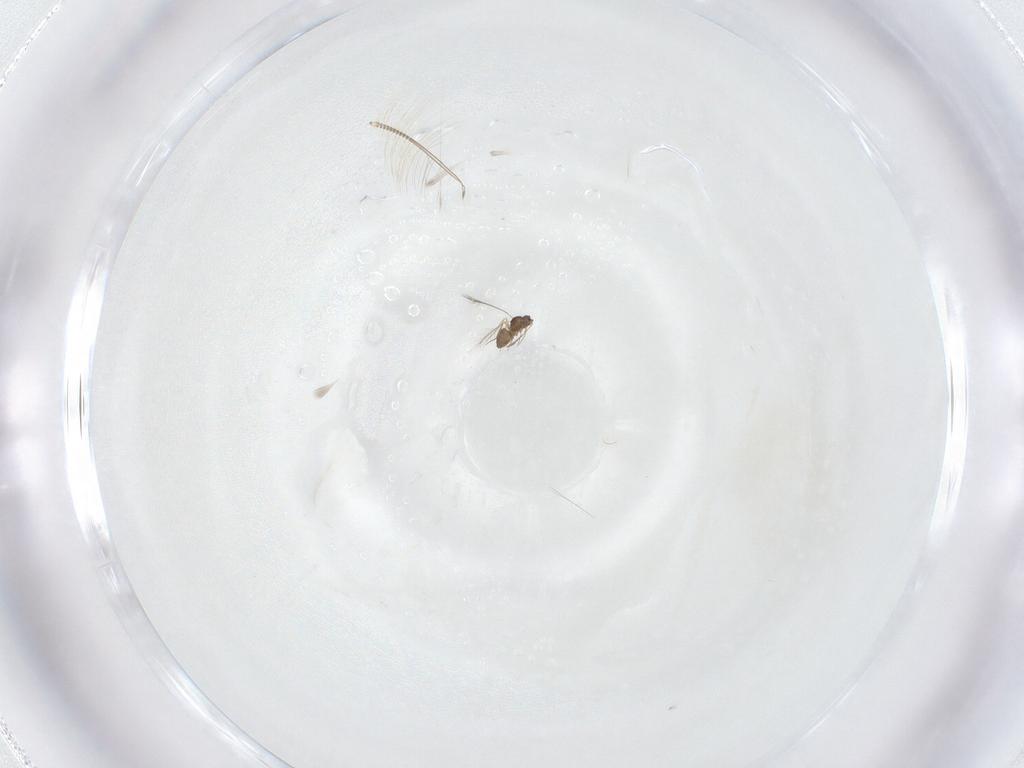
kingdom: Animalia
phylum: Arthropoda
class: Insecta
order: Hymenoptera
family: Mymaridae
